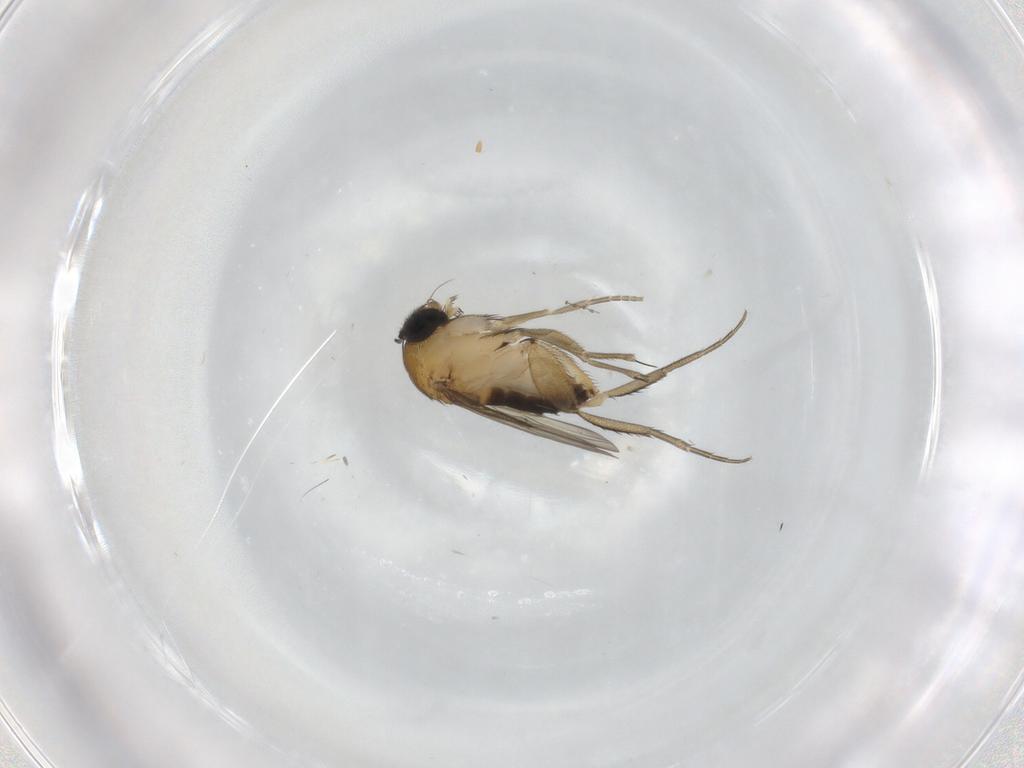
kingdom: Animalia
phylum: Arthropoda
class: Insecta
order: Diptera
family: Phoridae
